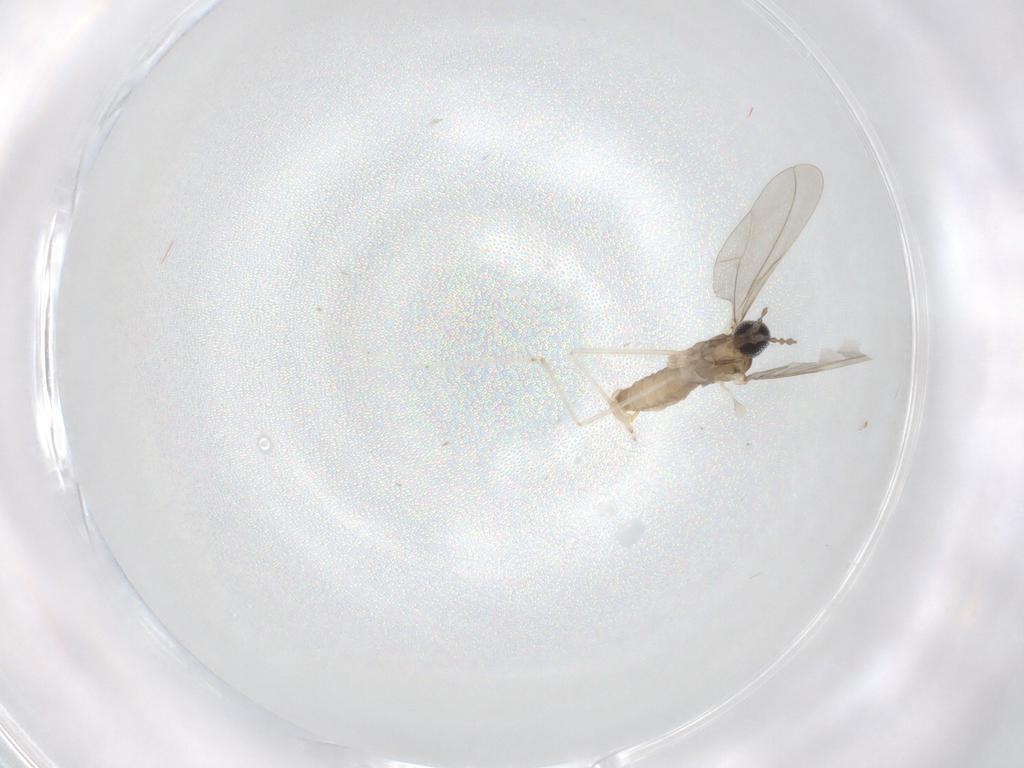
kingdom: Animalia
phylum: Arthropoda
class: Insecta
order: Diptera
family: Cecidomyiidae
